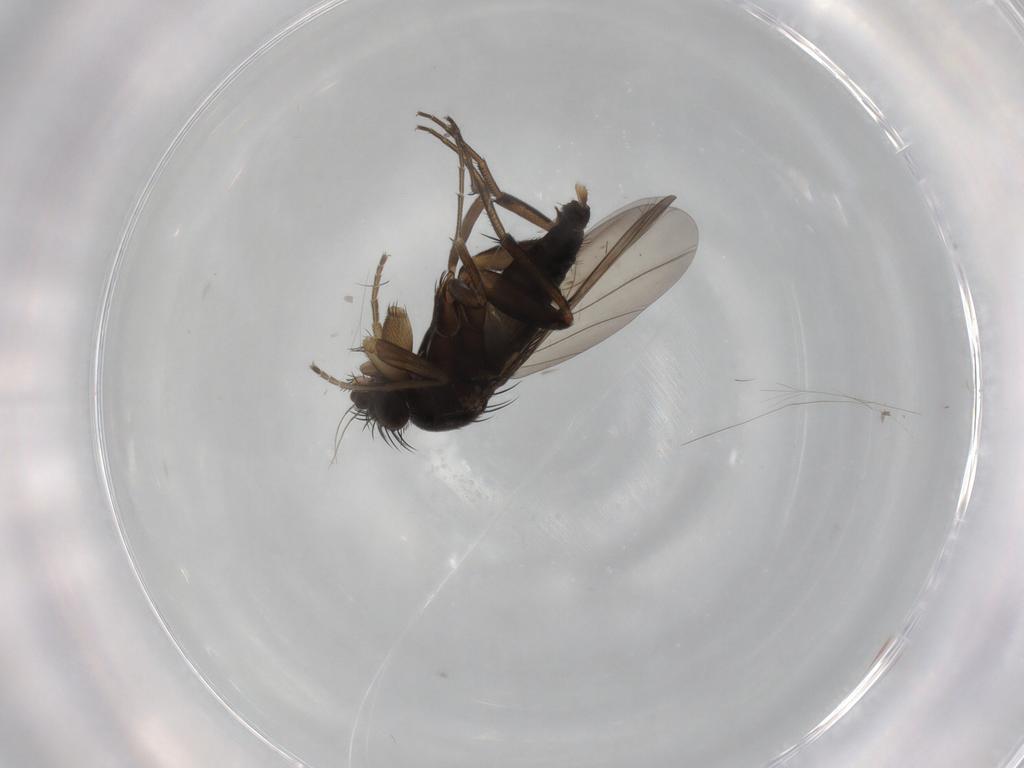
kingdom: Animalia
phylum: Arthropoda
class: Insecta
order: Diptera
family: Phoridae
